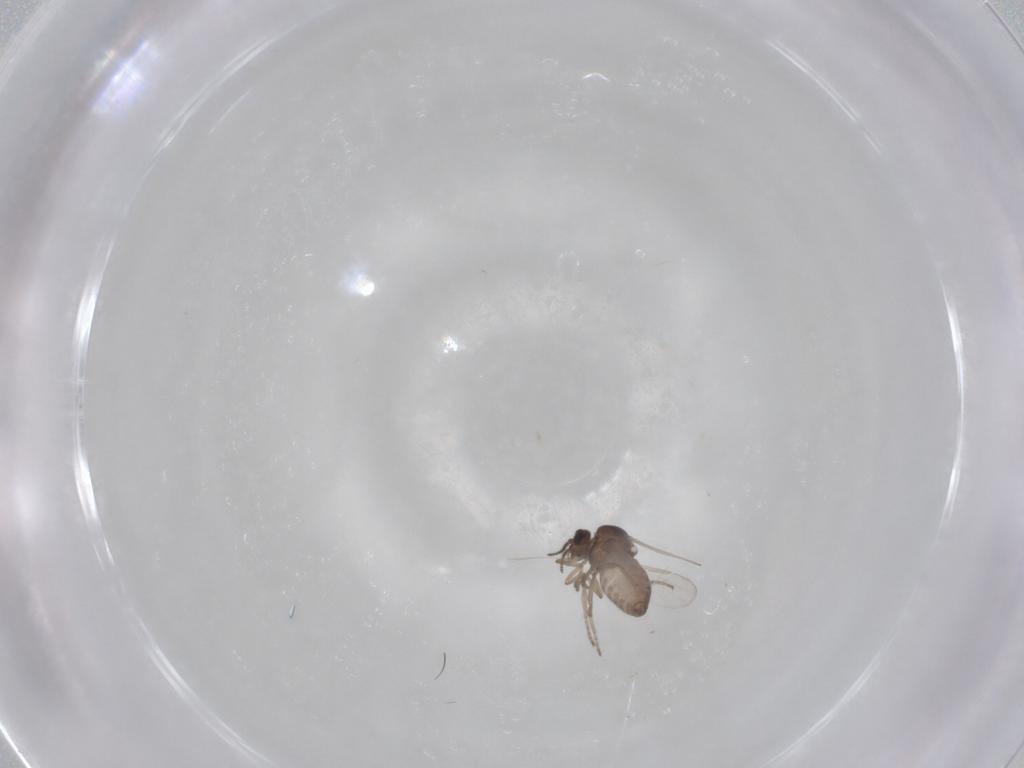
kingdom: Animalia
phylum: Arthropoda
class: Insecta
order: Diptera
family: Ceratopogonidae
